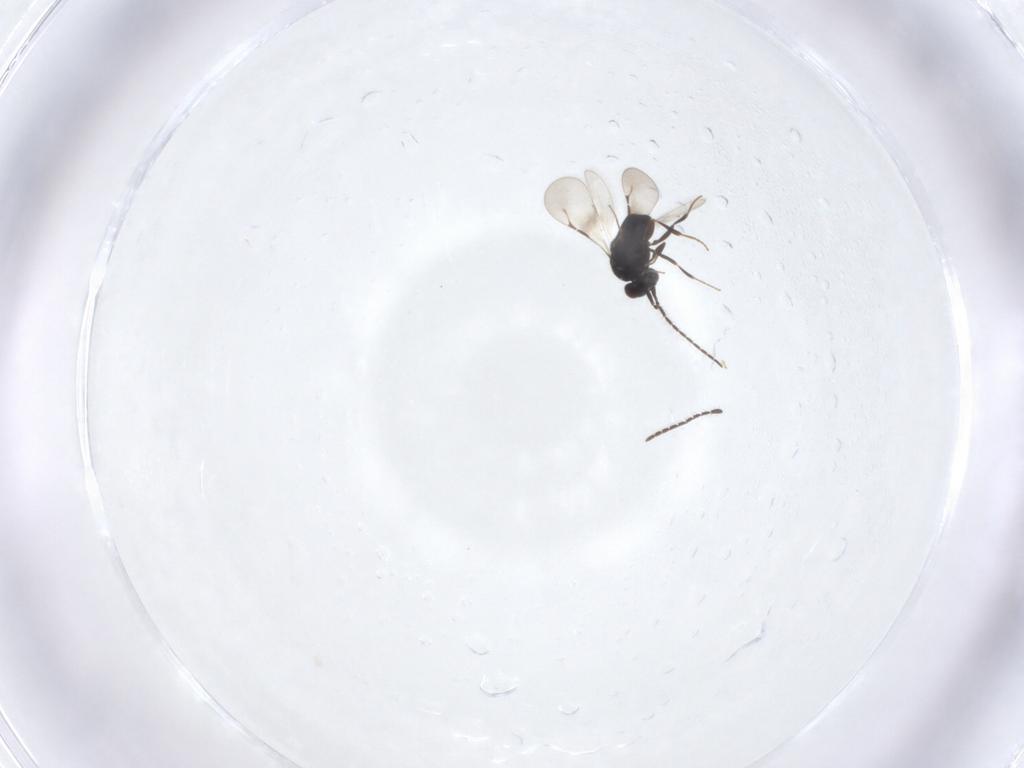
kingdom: Animalia
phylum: Arthropoda
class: Insecta
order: Hymenoptera
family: Ceraphronidae
